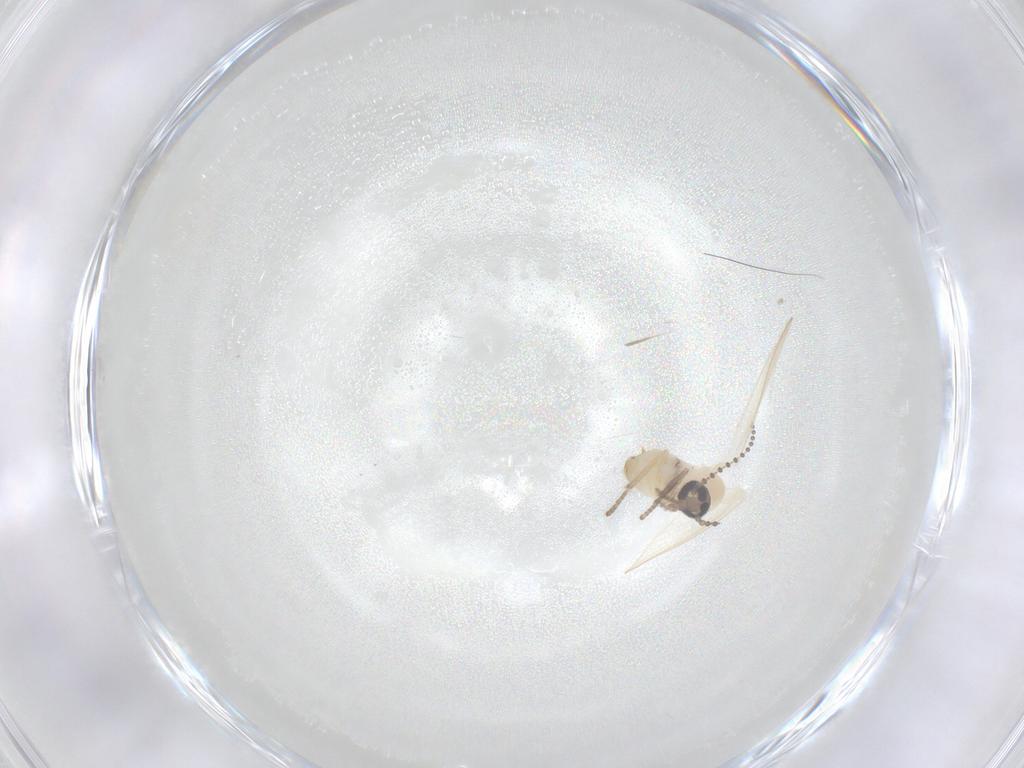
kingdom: Animalia
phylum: Arthropoda
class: Insecta
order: Diptera
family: Psychodidae
